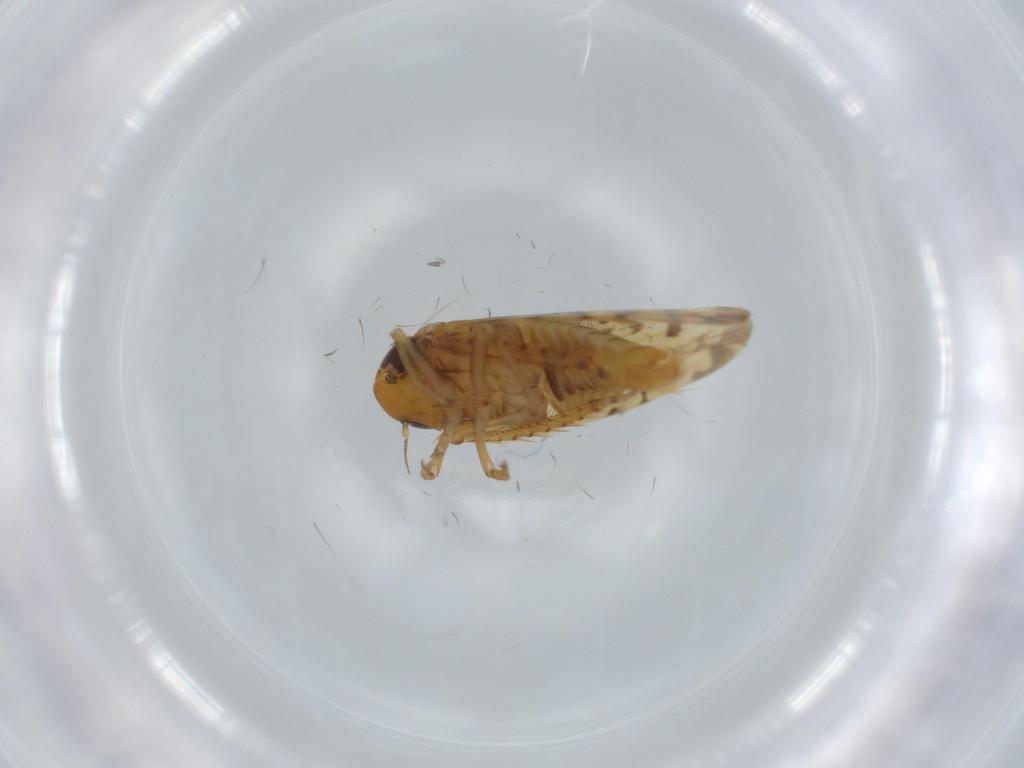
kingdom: Animalia
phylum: Arthropoda
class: Insecta
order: Hemiptera
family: Cicadellidae
